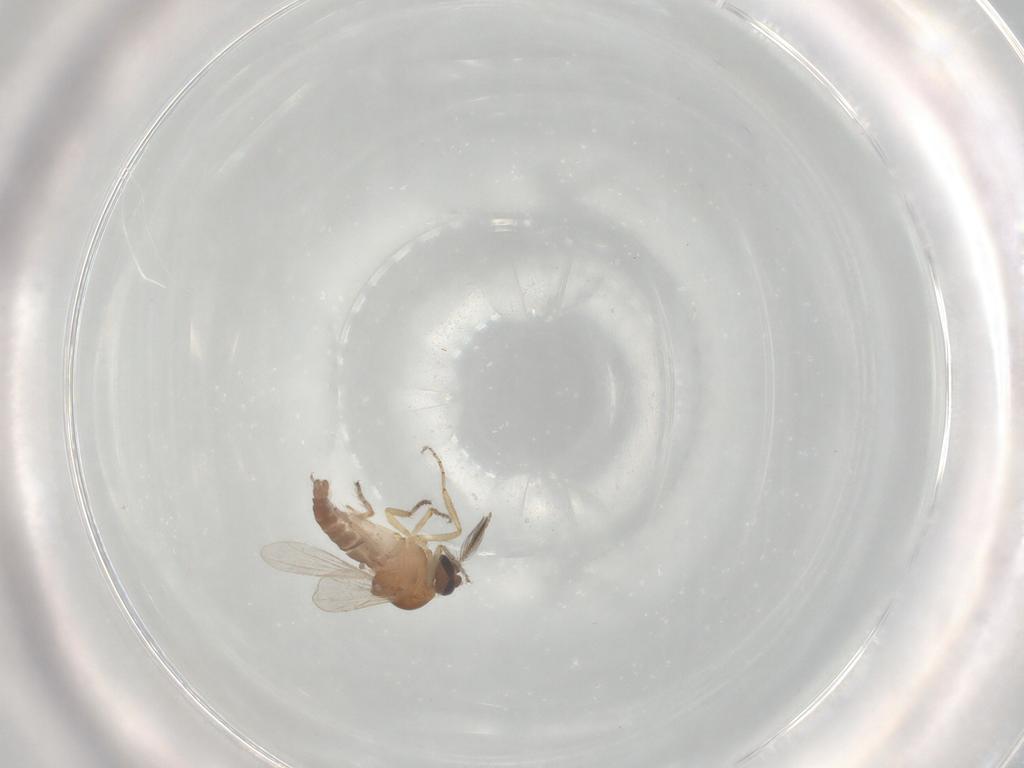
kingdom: Animalia
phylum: Arthropoda
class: Insecta
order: Diptera
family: Ceratopogonidae
